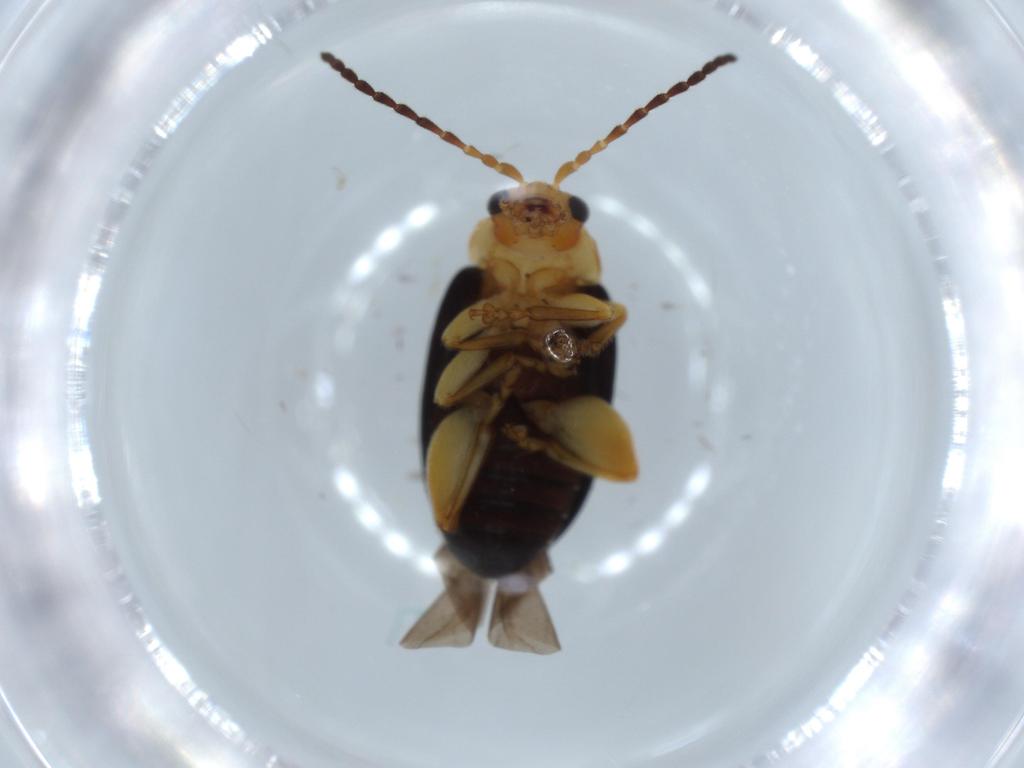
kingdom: Animalia
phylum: Arthropoda
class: Insecta
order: Coleoptera
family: Chrysomelidae
